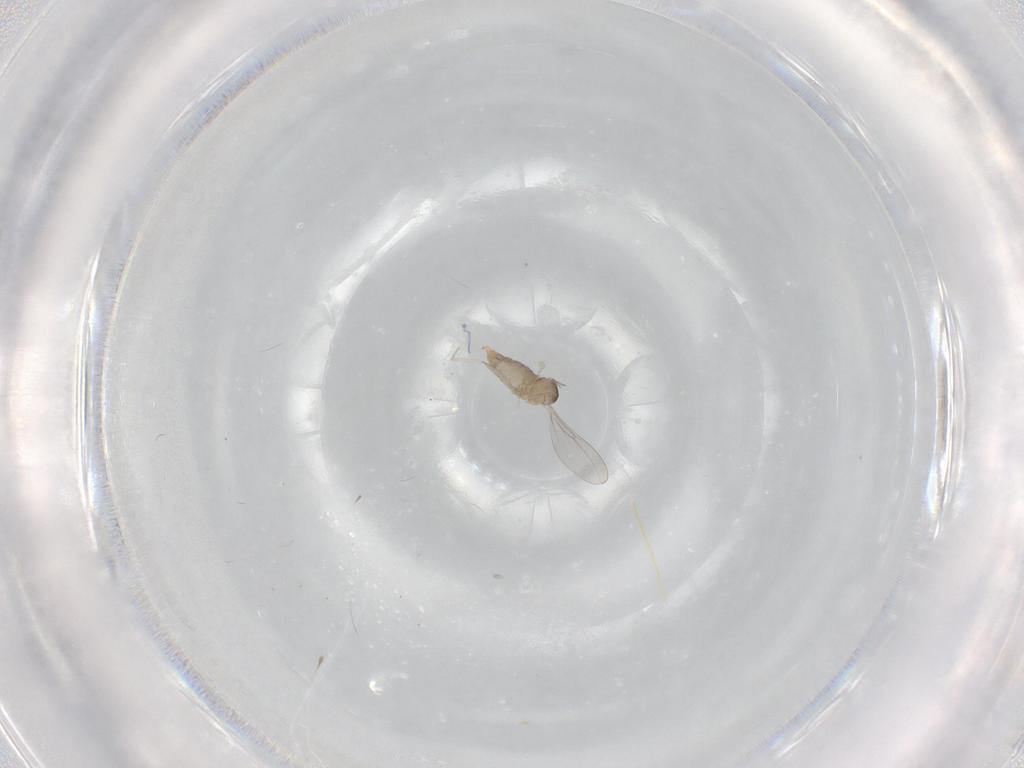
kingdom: Animalia
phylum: Arthropoda
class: Insecta
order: Diptera
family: Cecidomyiidae
